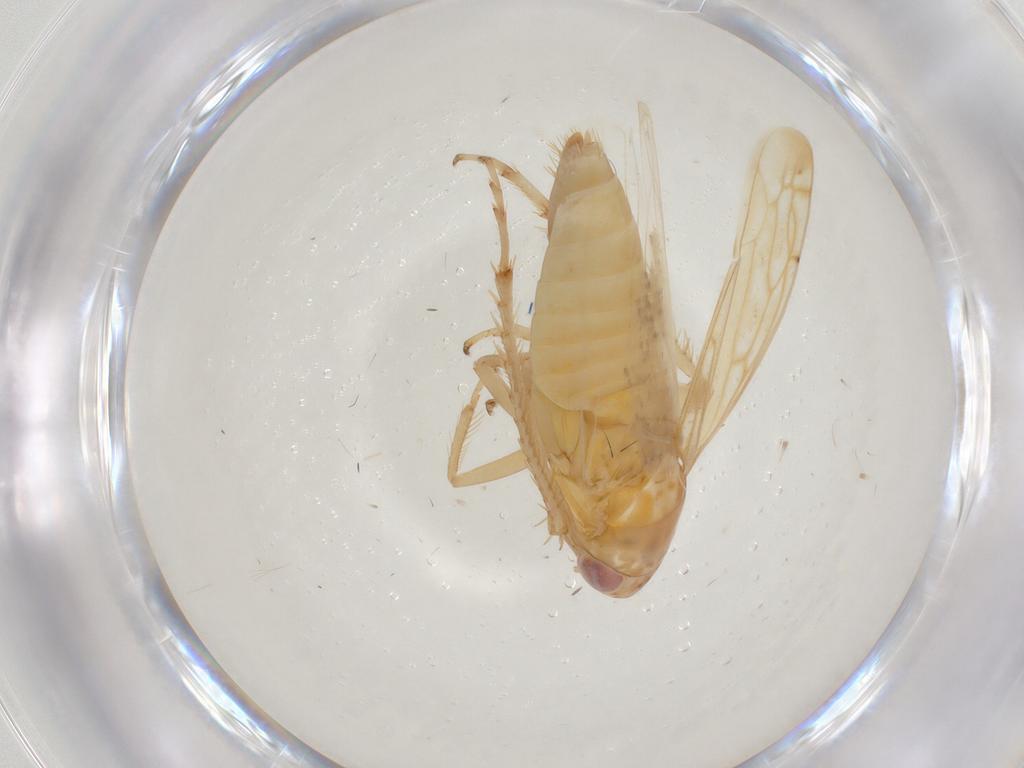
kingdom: Animalia
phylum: Arthropoda
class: Insecta
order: Hemiptera
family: Cicadellidae
